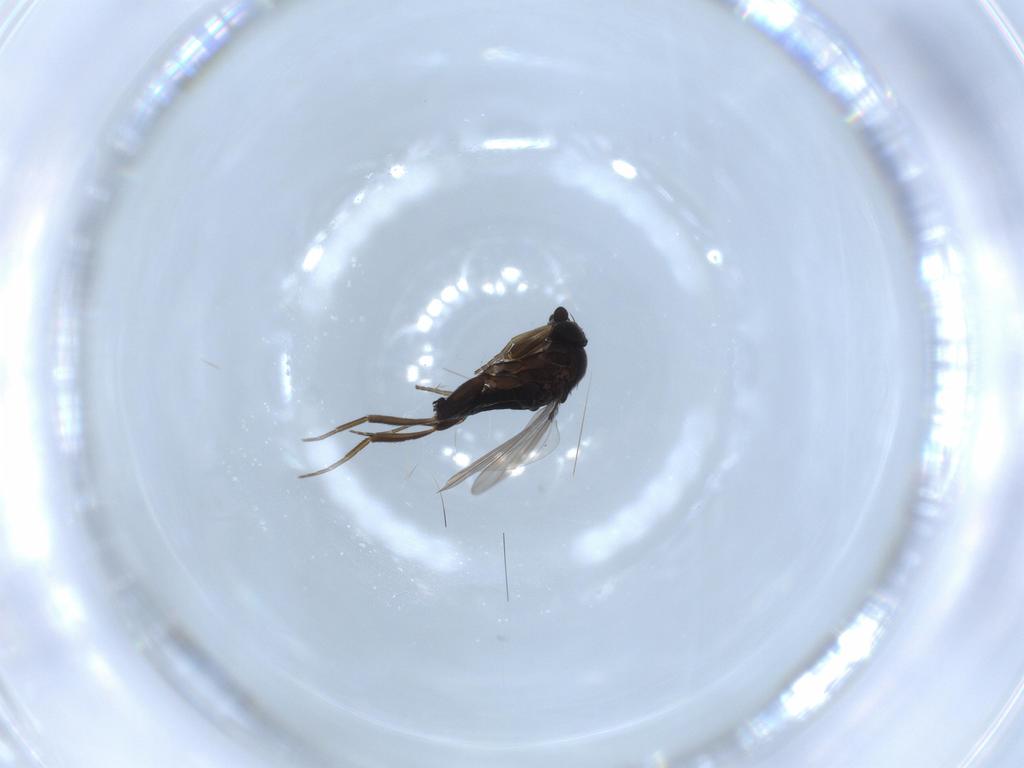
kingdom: Animalia
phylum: Arthropoda
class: Insecta
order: Diptera
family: Phoridae
